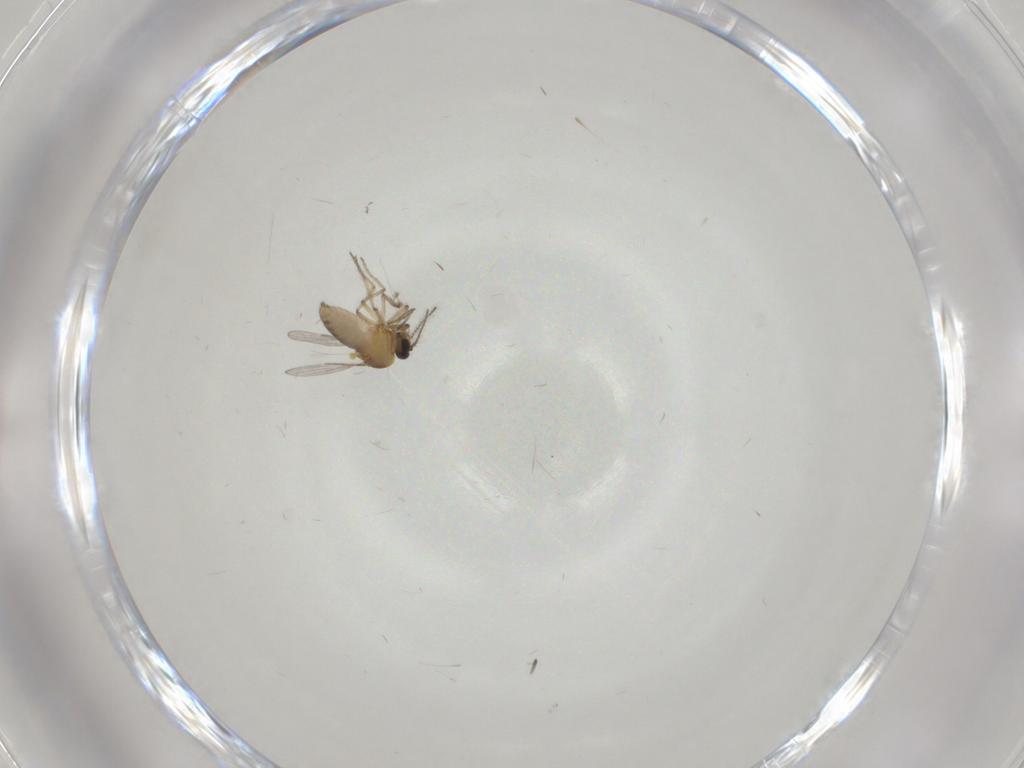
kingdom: Animalia
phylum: Arthropoda
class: Insecta
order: Diptera
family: Ceratopogonidae
